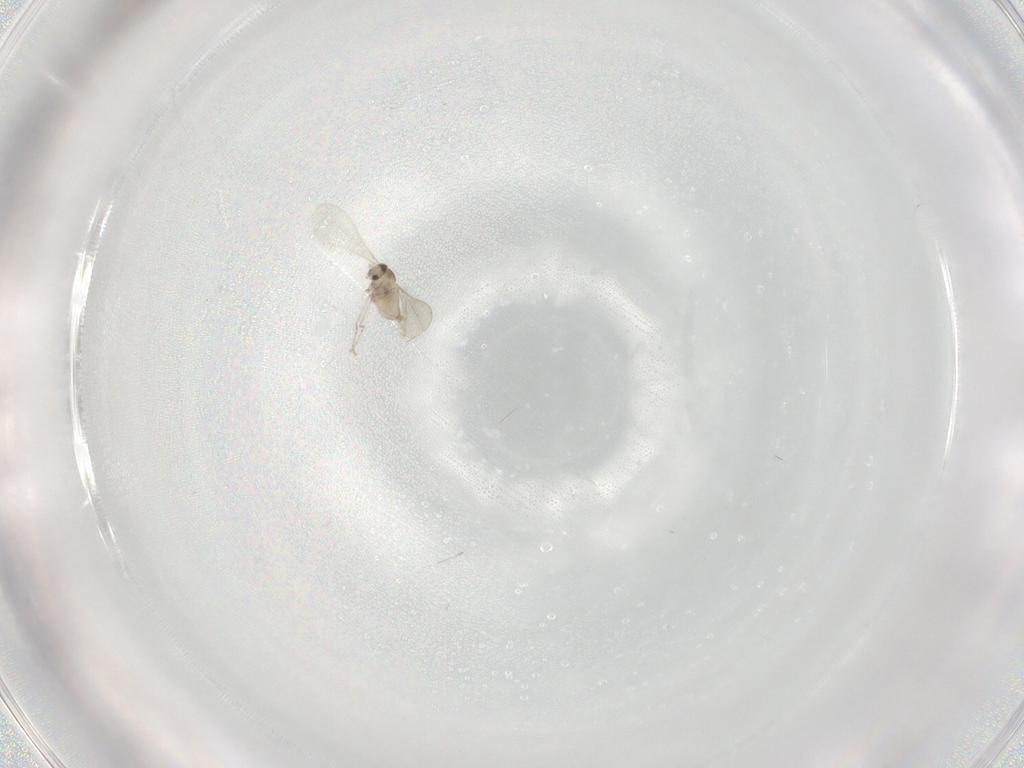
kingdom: Animalia
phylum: Arthropoda
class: Insecta
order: Diptera
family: Cecidomyiidae
